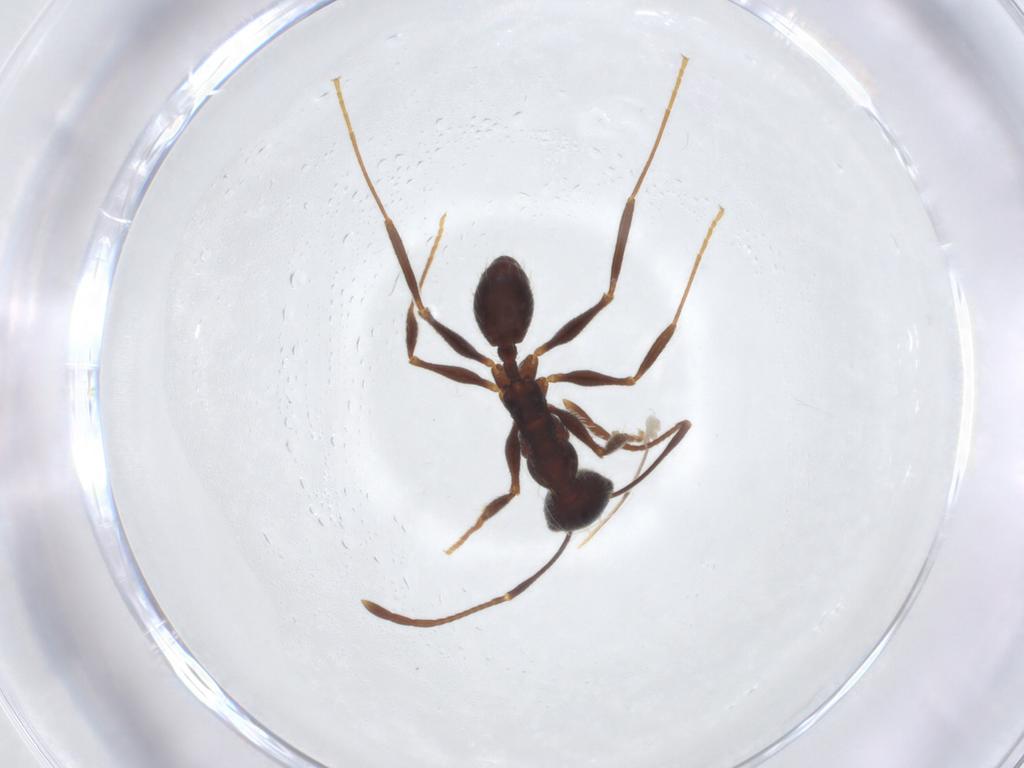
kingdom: Animalia
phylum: Arthropoda
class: Insecta
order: Hymenoptera
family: Formicidae
